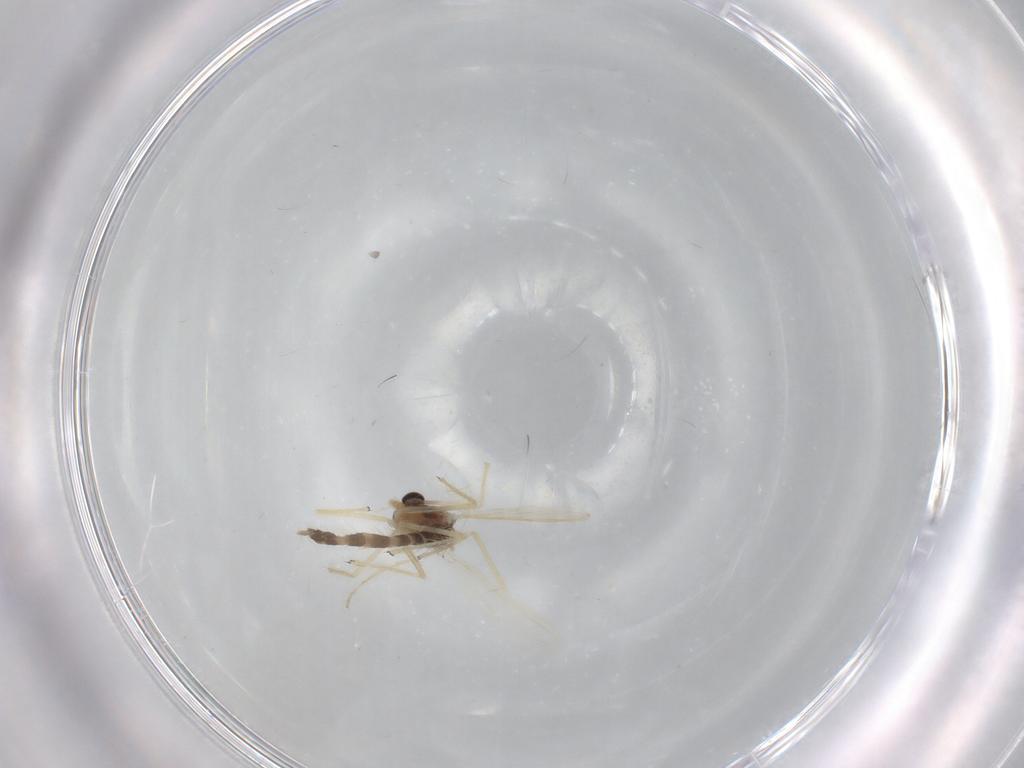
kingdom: Animalia
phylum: Arthropoda
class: Insecta
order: Diptera
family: Chironomidae
